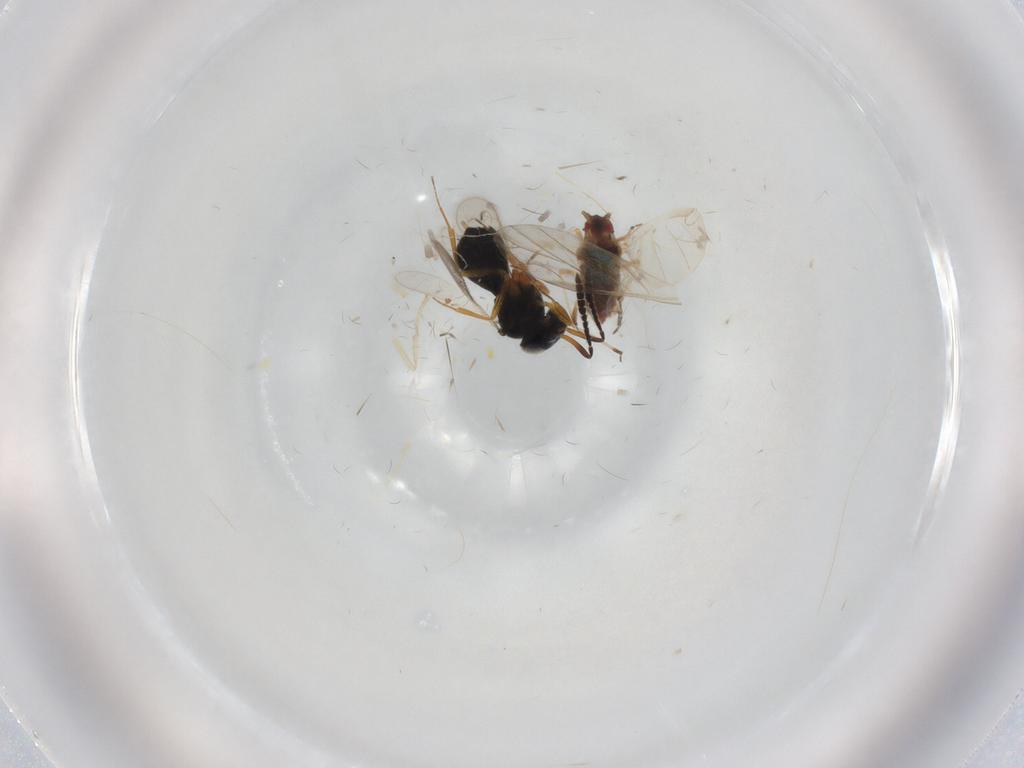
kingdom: Animalia
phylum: Arthropoda
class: Insecta
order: Hymenoptera
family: Scelionidae
